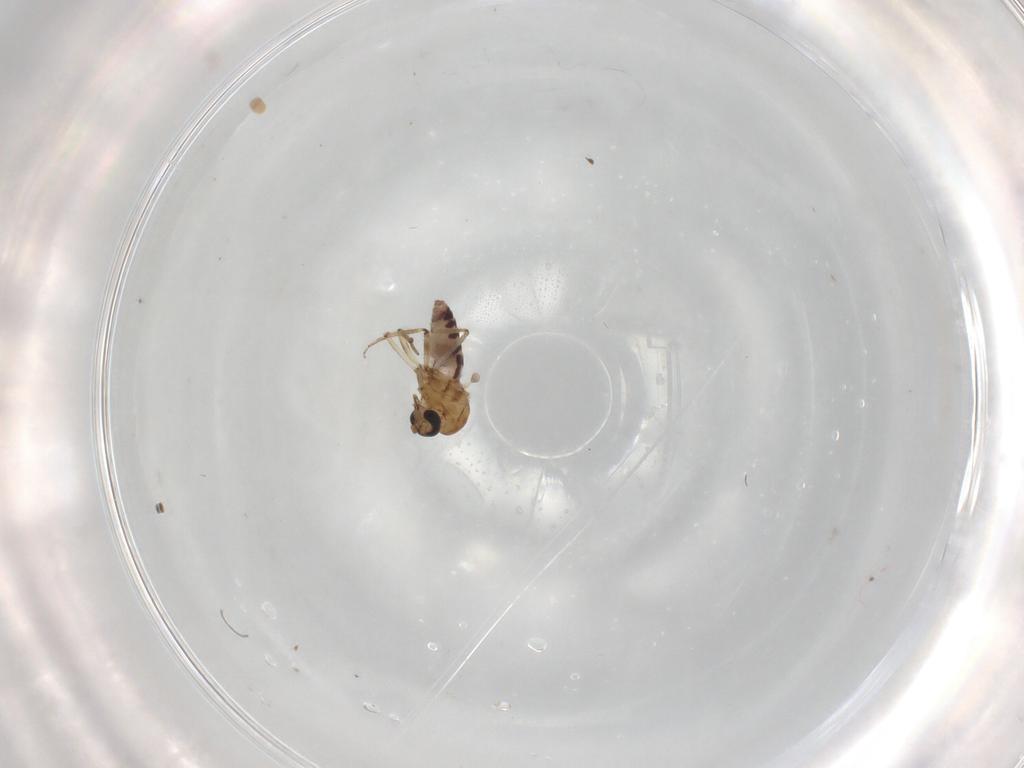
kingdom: Animalia
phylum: Arthropoda
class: Insecta
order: Diptera
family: Ceratopogonidae
